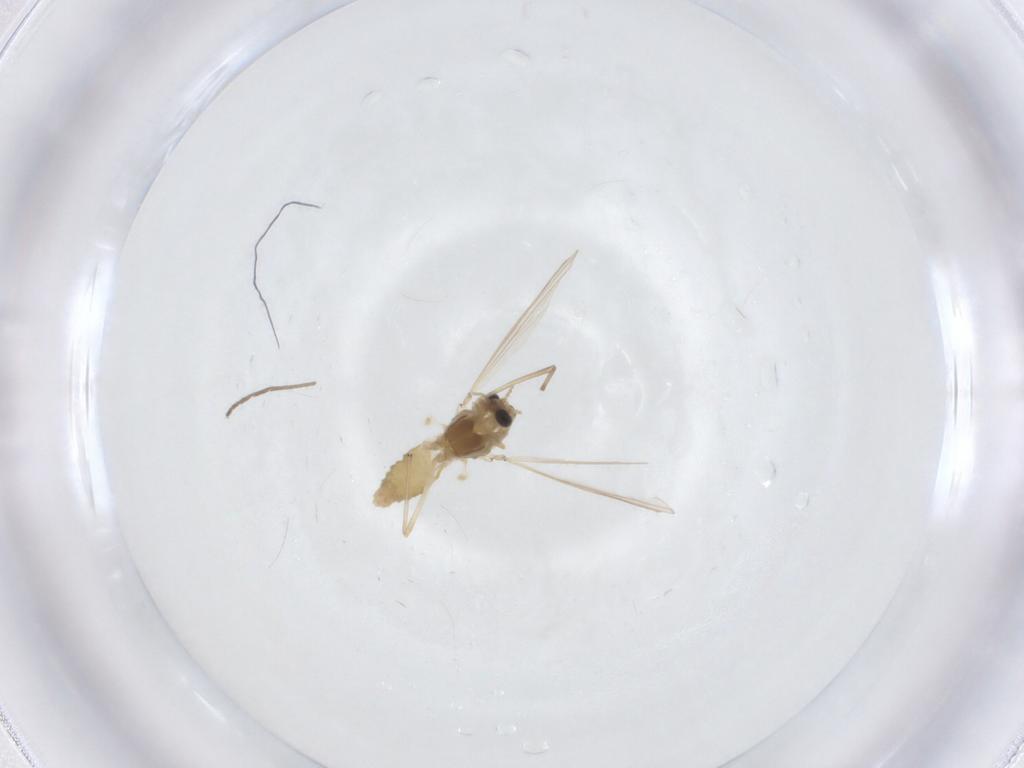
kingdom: Animalia
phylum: Arthropoda
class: Insecta
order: Diptera
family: Chironomidae
